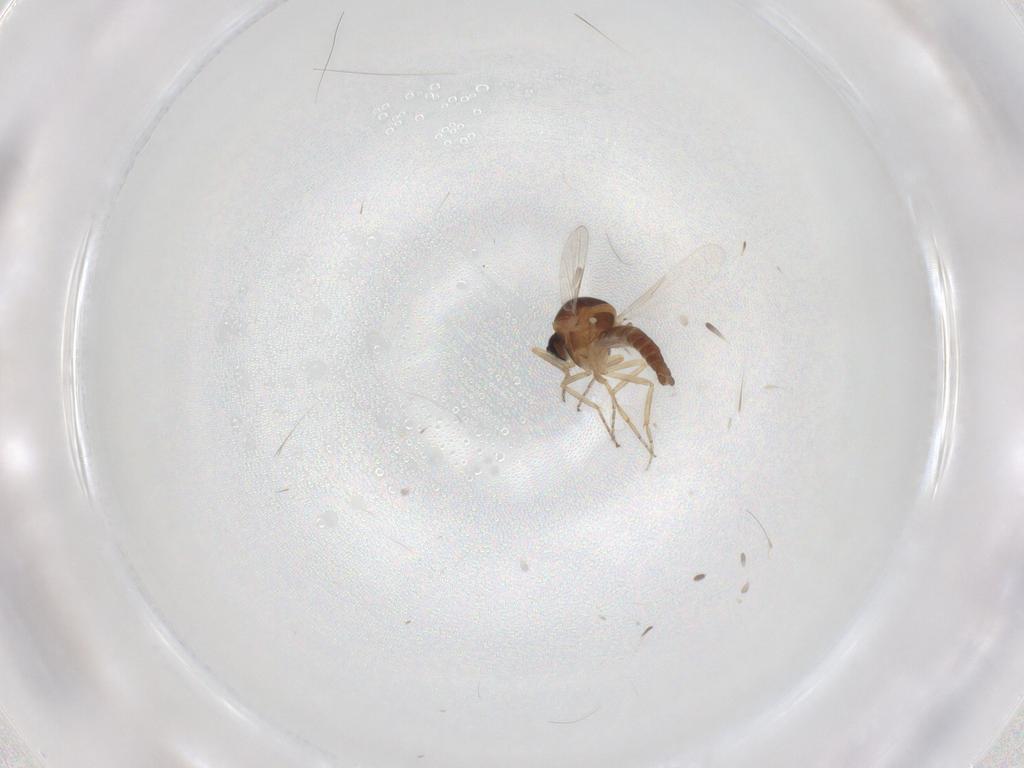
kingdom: Animalia
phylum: Arthropoda
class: Insecta
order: Diptera
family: Ceratopogonidae
